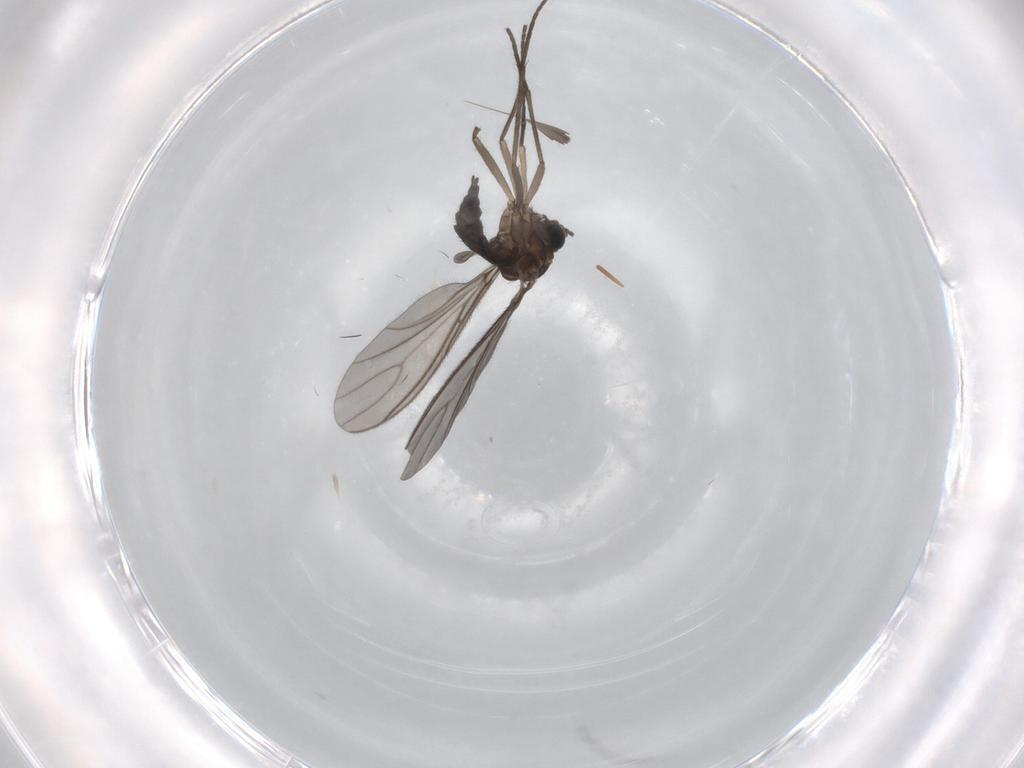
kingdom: Animalia
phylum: Arthropoda
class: Insecta
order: Diptera
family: Sciaridae
